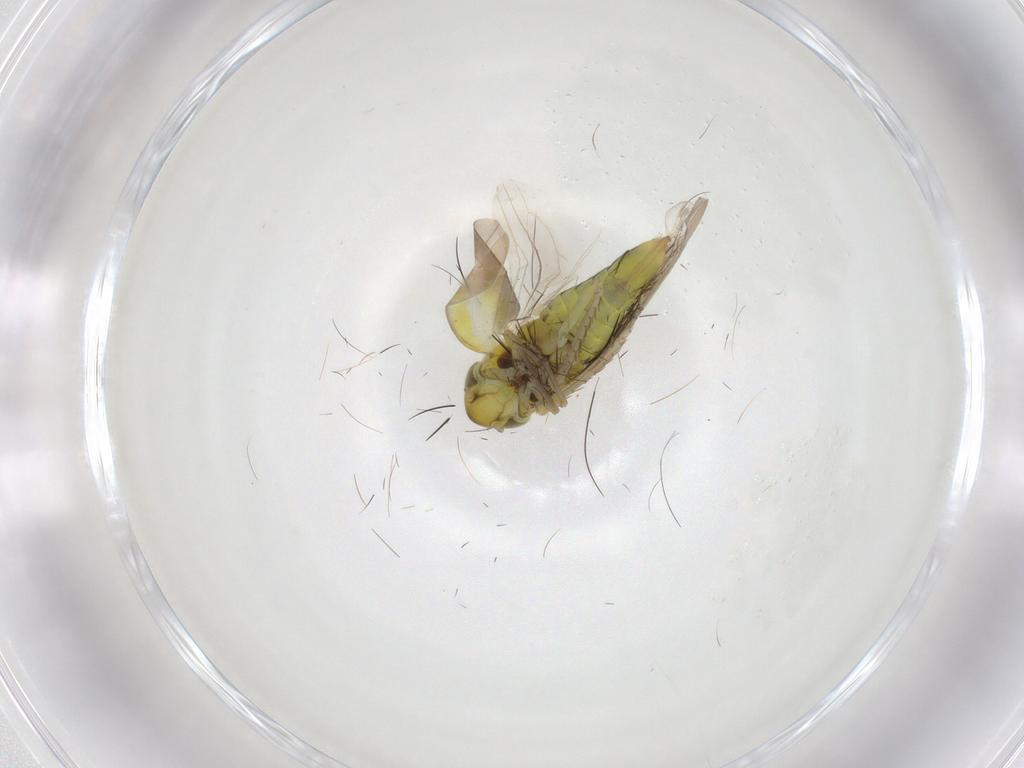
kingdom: Animalia
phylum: Arthropoda
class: Insecta
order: Hemiptera
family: Cicadellidae
